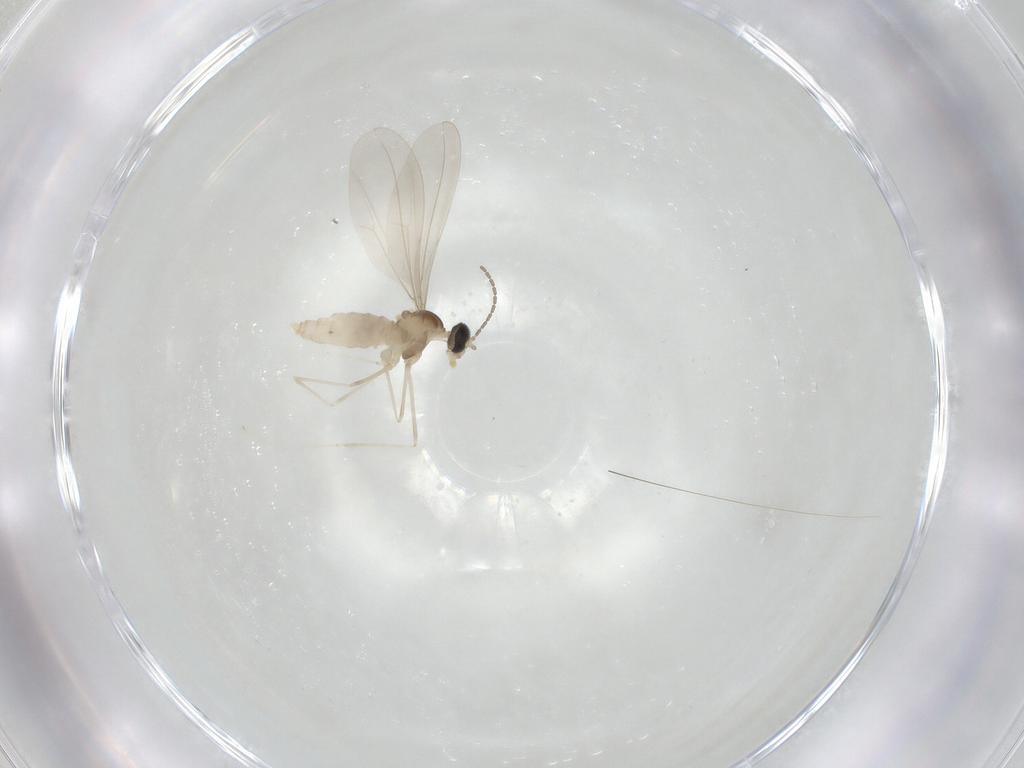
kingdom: Animalia
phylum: Arthropoda
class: Insecta
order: Diptera
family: Cecidomyiidae
